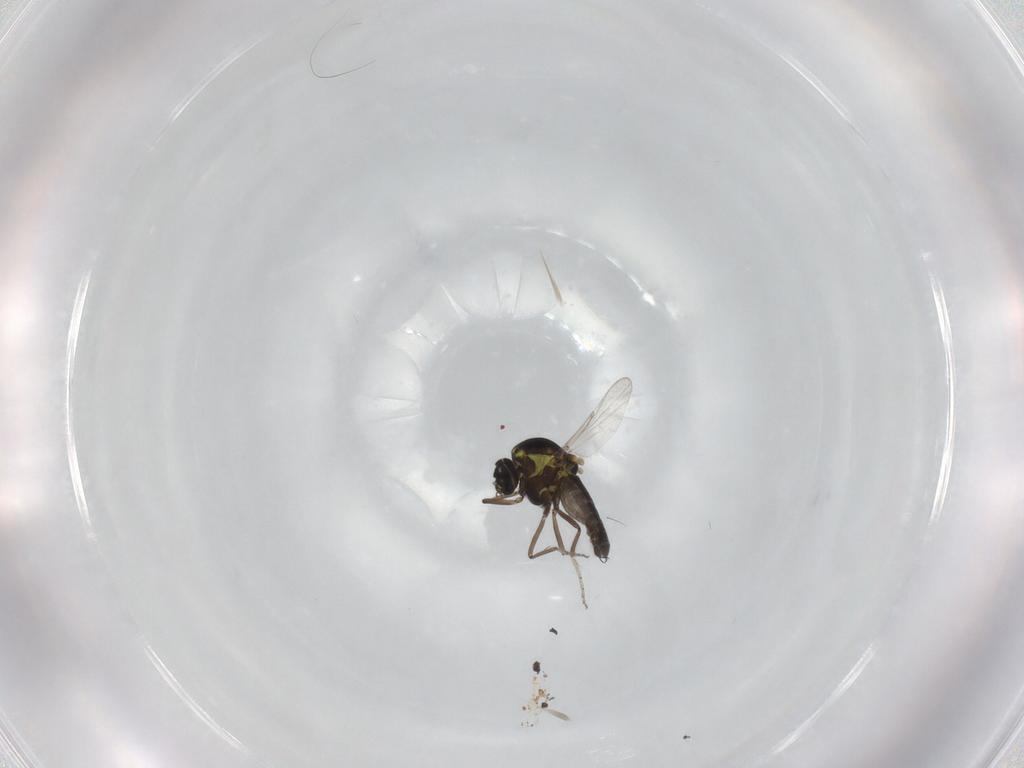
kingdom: Animalia
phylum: Arthropoda
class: Insecta
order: Diptera
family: Ceratopogonidae
